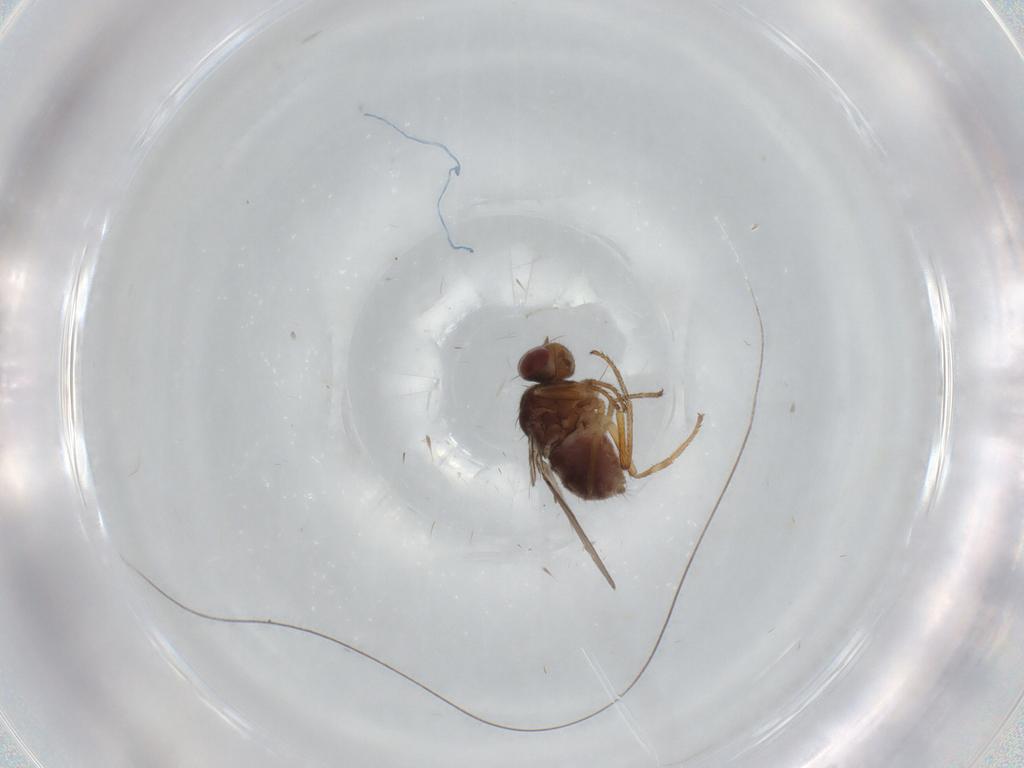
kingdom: Animalia
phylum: Arthropoda
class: Insecta
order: Diptera
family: Ephydridae
